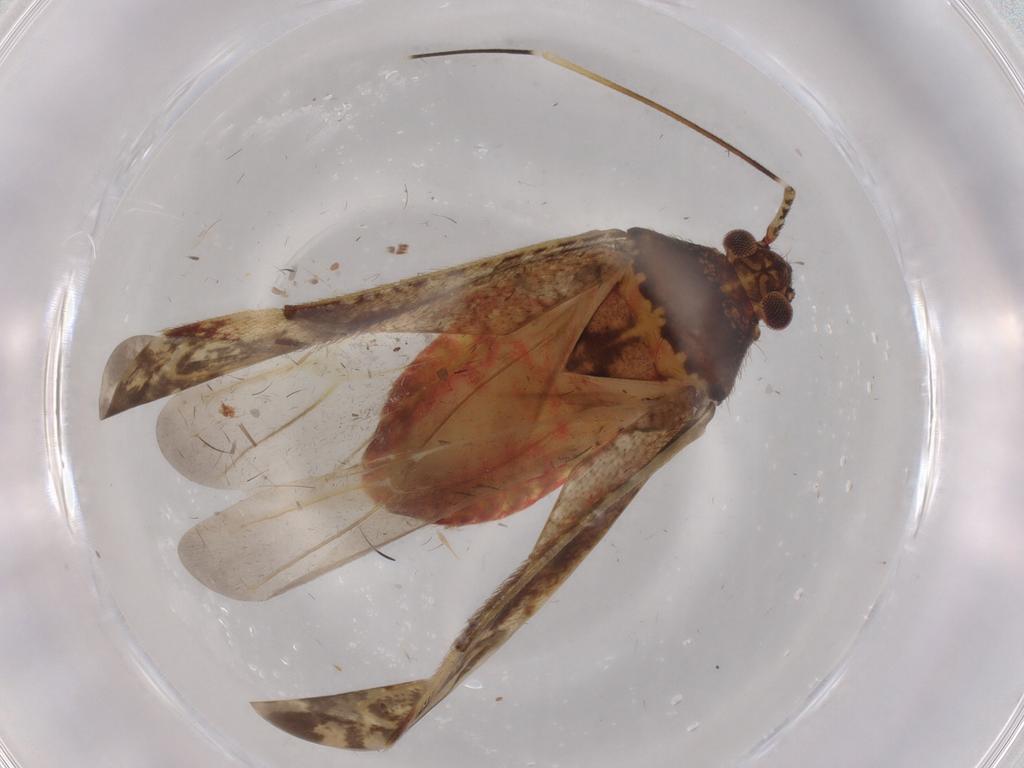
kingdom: Animalia
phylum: Arthropoda
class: Insecta
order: Hemiptera
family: Miridae
